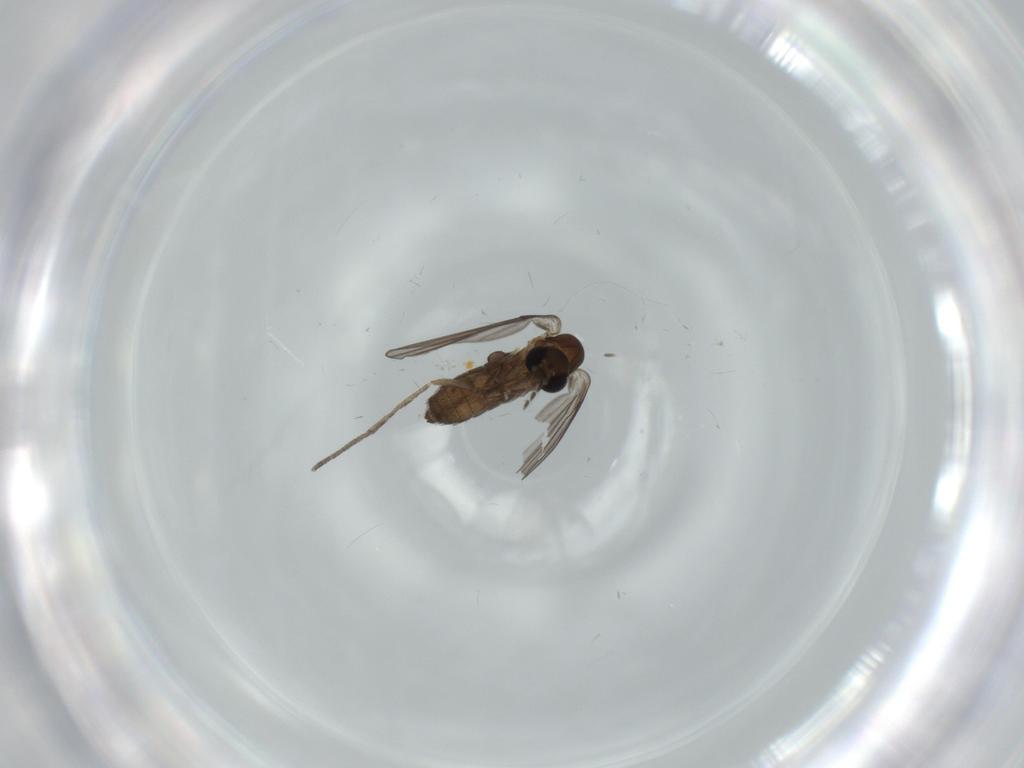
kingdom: Animalia
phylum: Arthropoda
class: Insecta
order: Diptera
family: Psychodidae
